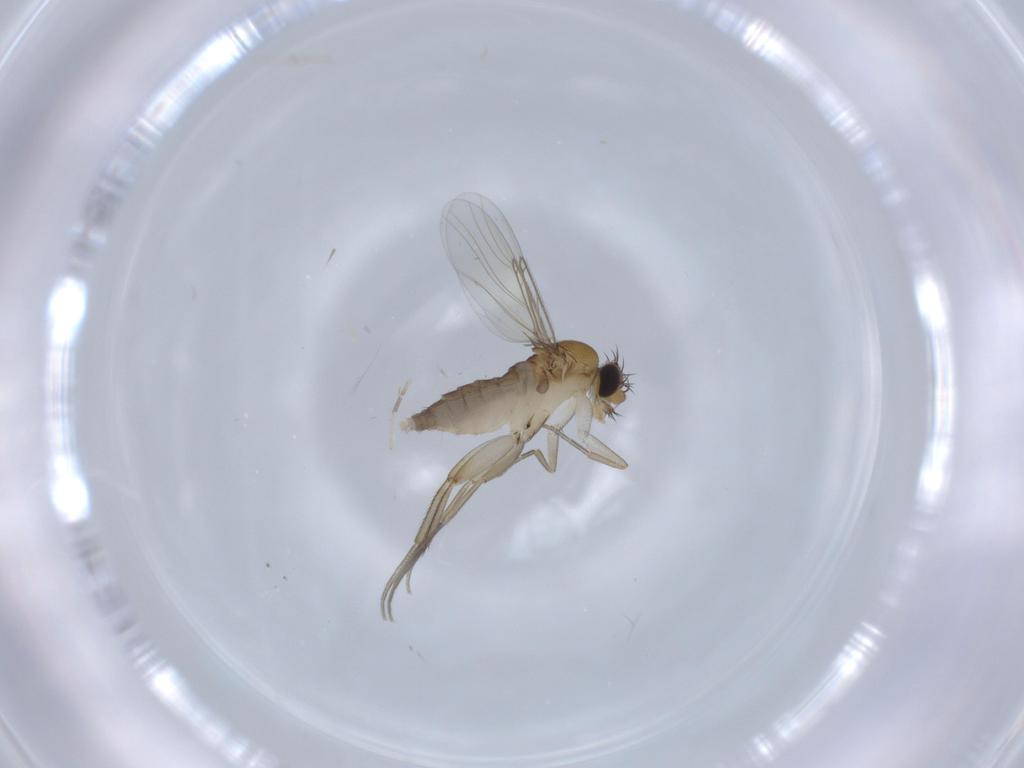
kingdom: Animalia
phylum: Arthropoda
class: Insecta
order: Diptera
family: Phoridae
